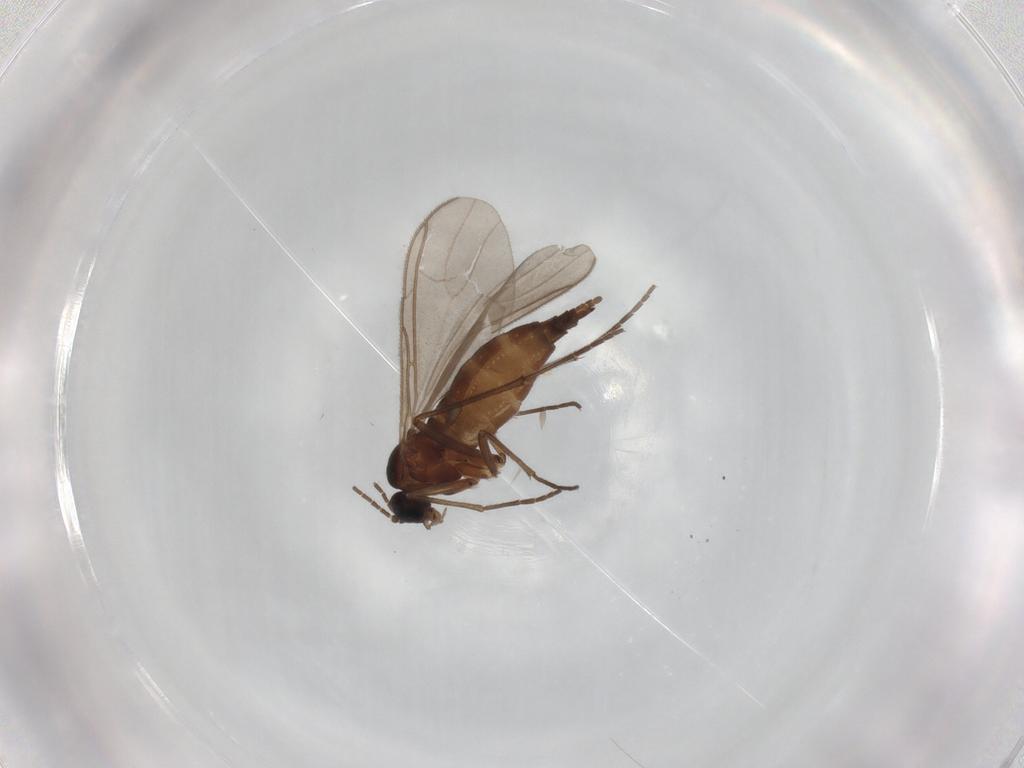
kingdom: Animalia
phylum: Arthropoda
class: Insecta
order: Diptera
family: Sciaridae
